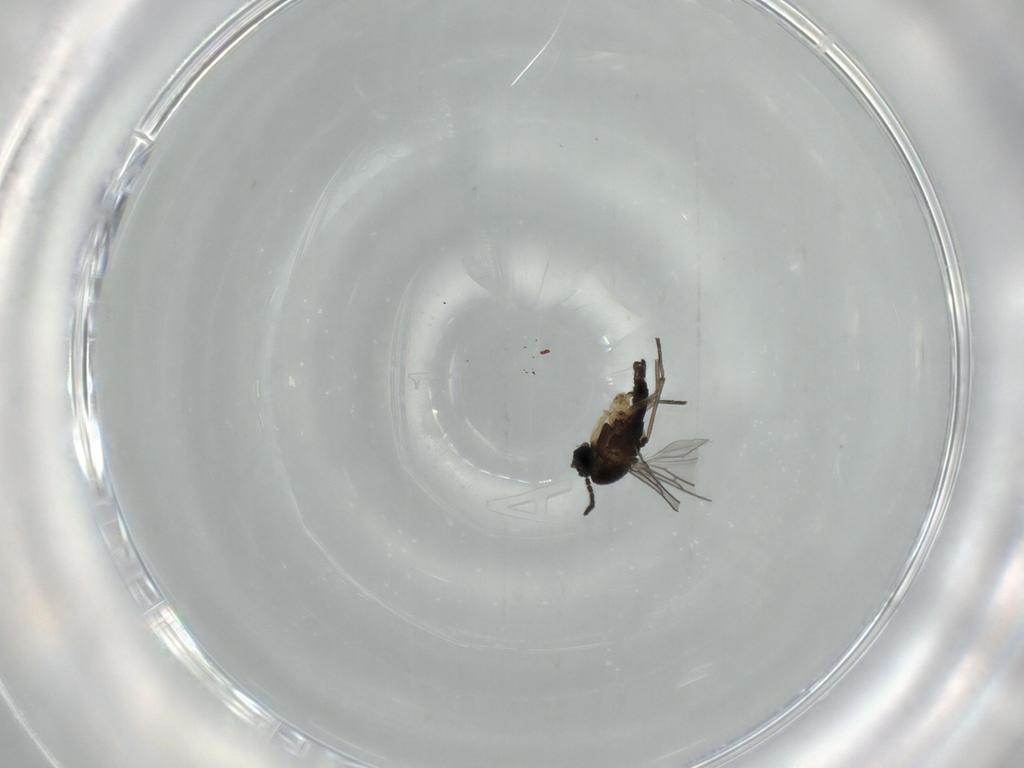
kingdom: Animalia
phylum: Arthropoda
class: Insecta
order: Diptera
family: Sciaridae
